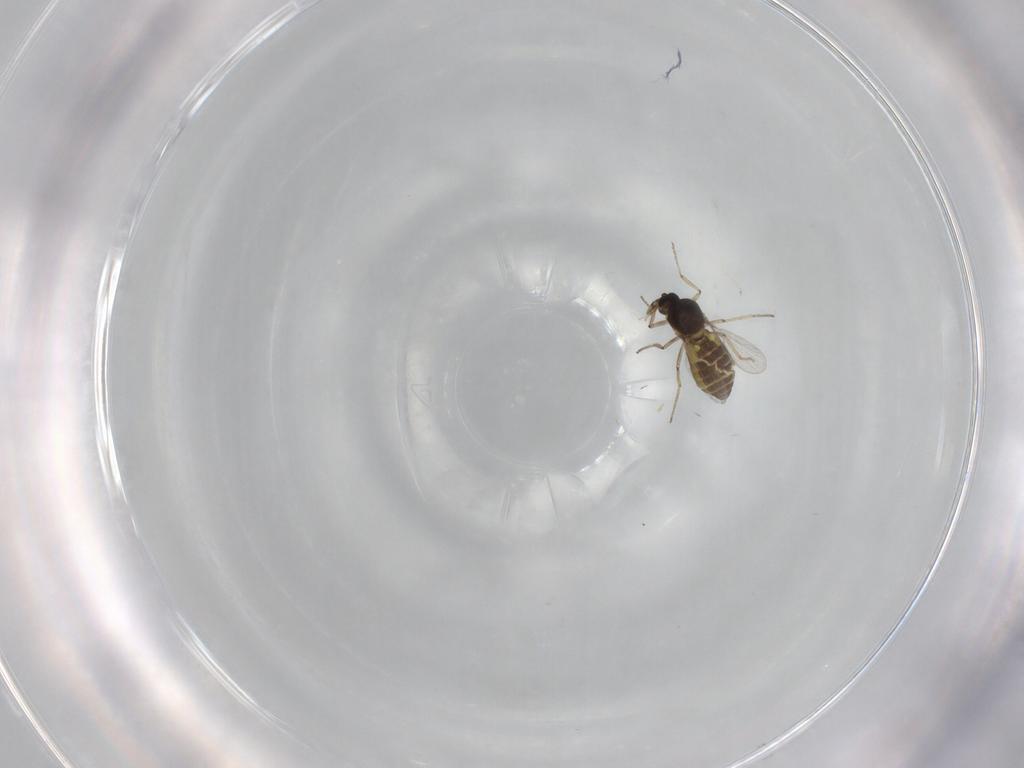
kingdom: Animalia
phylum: Arthropoda
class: Insecta
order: Diptera
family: Ceratopogonidae
